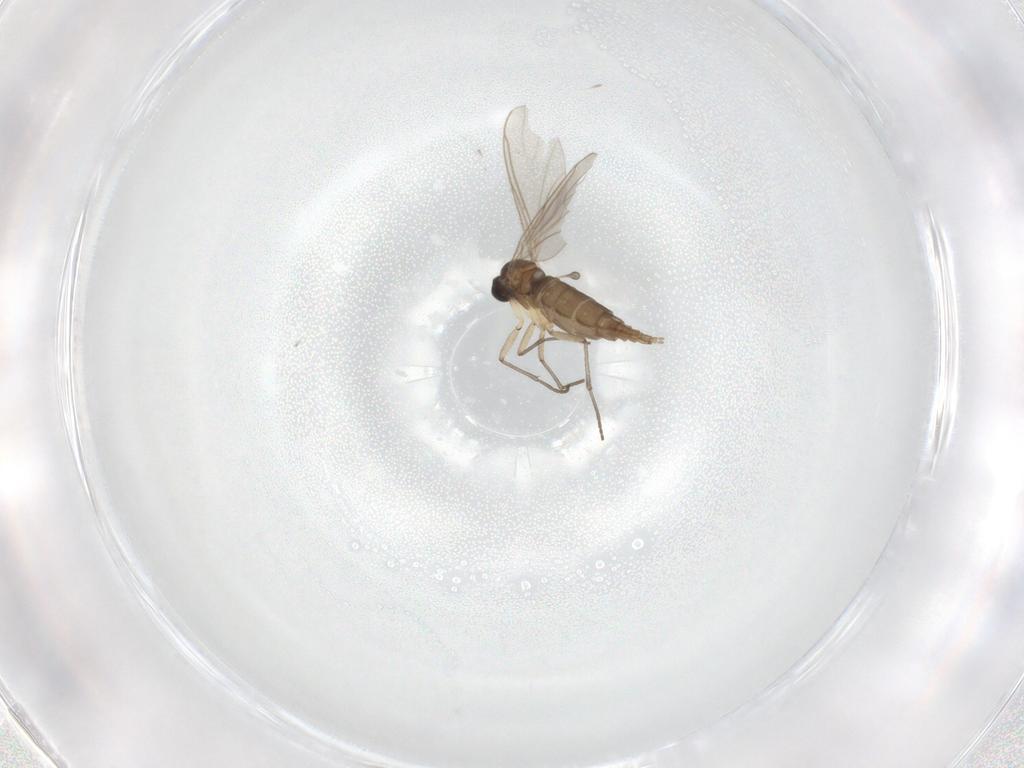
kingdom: Animalia
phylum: Arthropoda
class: Insecta
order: Diptera
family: Sciaridae
